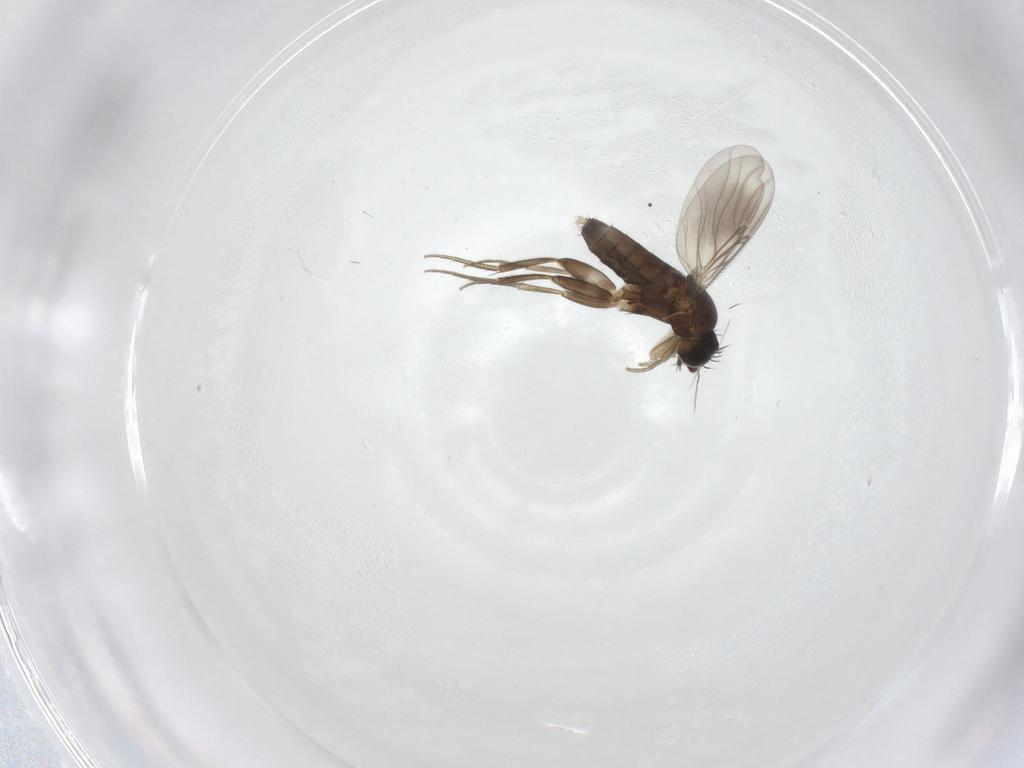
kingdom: Animalia
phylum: Arthropoda
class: Insecta
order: Diptera
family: Phoridae
